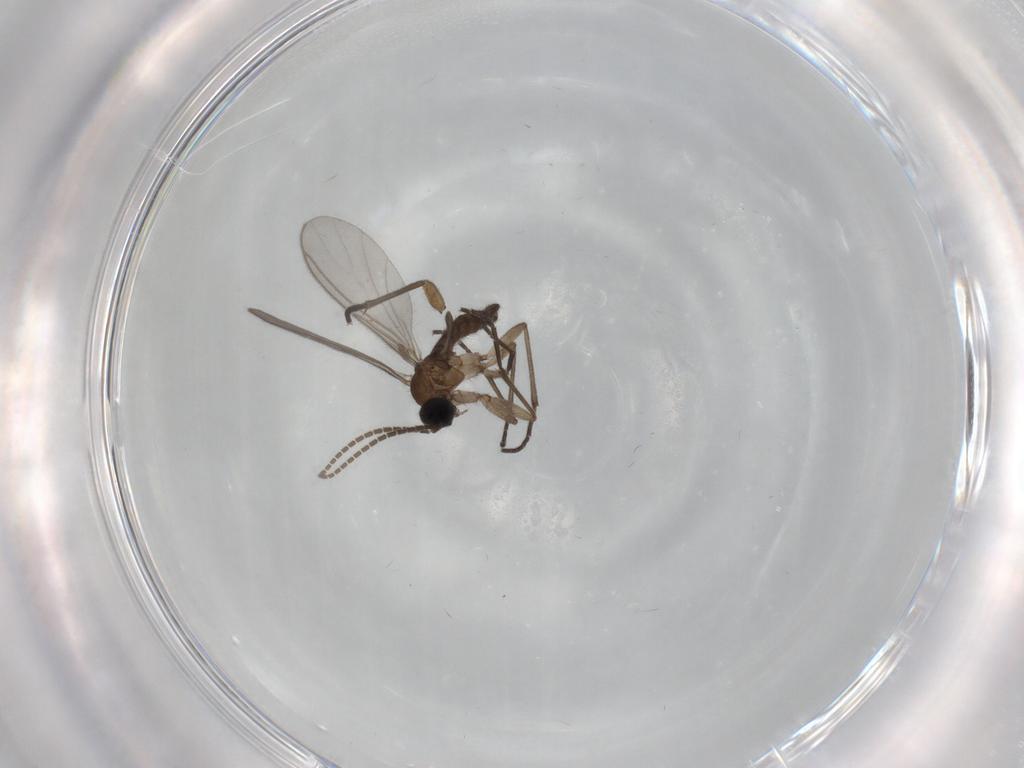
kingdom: Animalia
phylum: Arthropoda
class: Insecta
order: Diptera
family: Sciaridae
